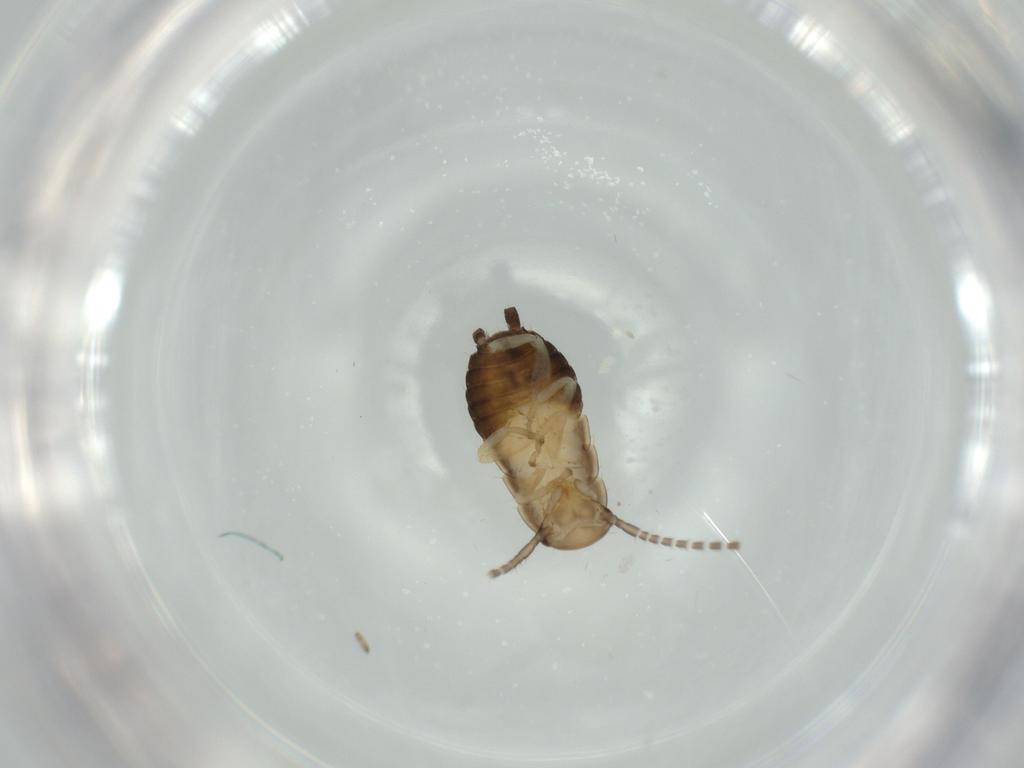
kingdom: Animalia
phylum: Arthropoda
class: Insecta
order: Blattodea
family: Ectobiidae
